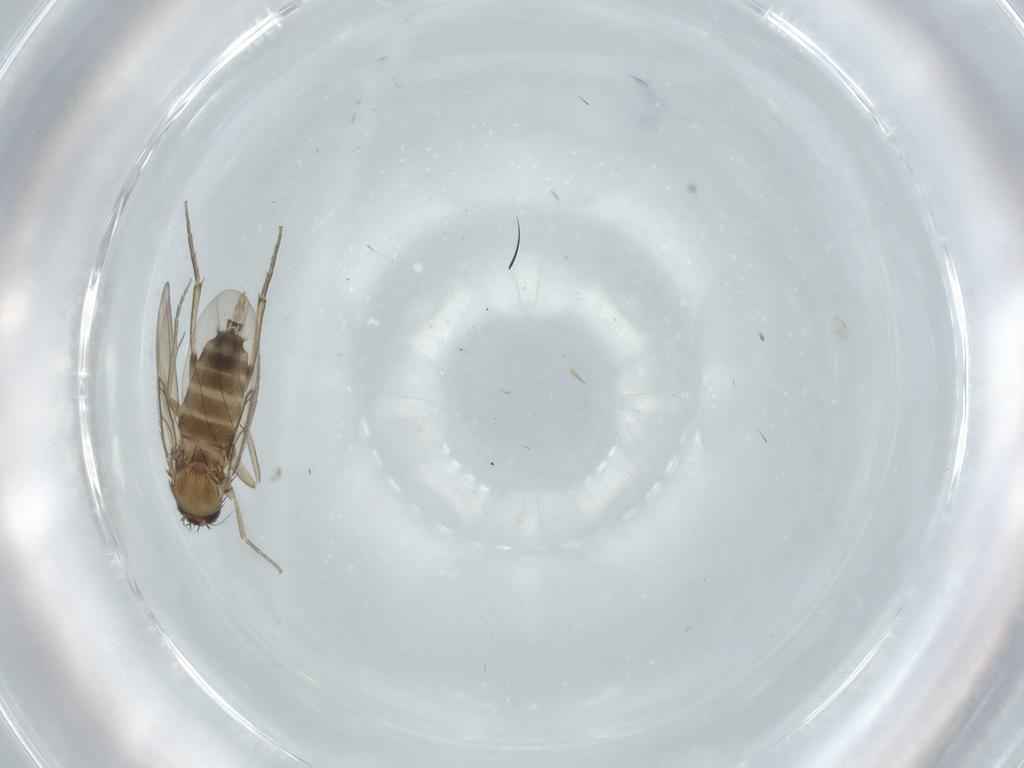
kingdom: Animalia
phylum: Arthropoda
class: Insecta
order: Diptera
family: Phoridae
